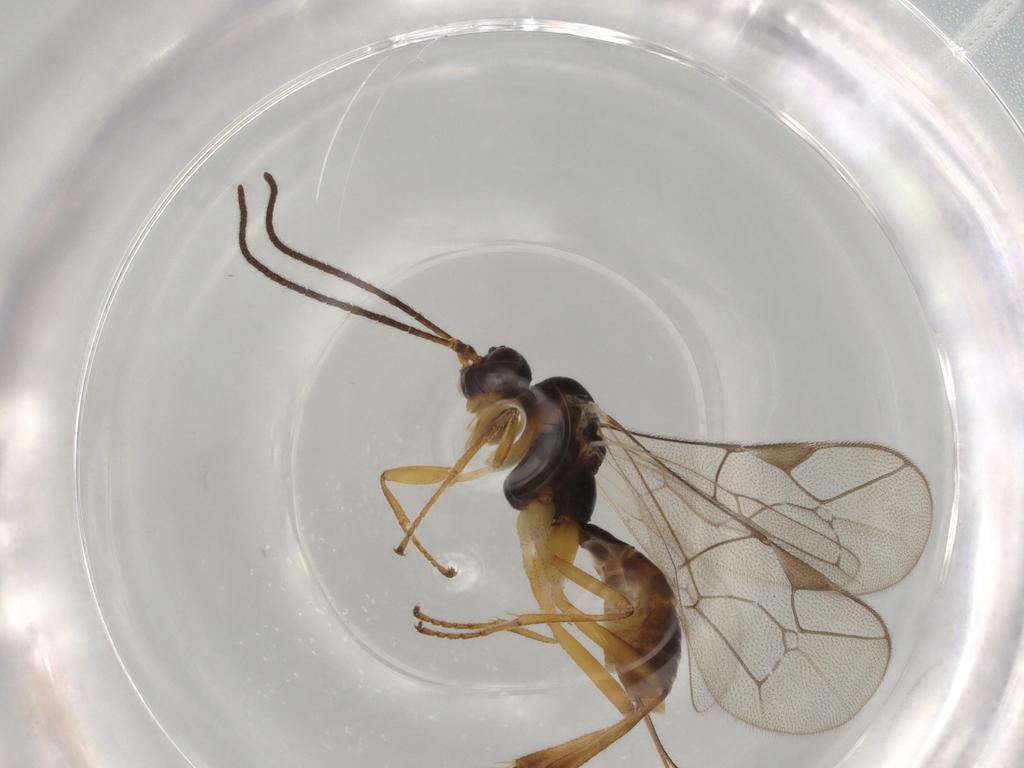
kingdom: Animalia
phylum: Arthropoda
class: Insecta
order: Hymenoptera
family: Ichneumonidae
